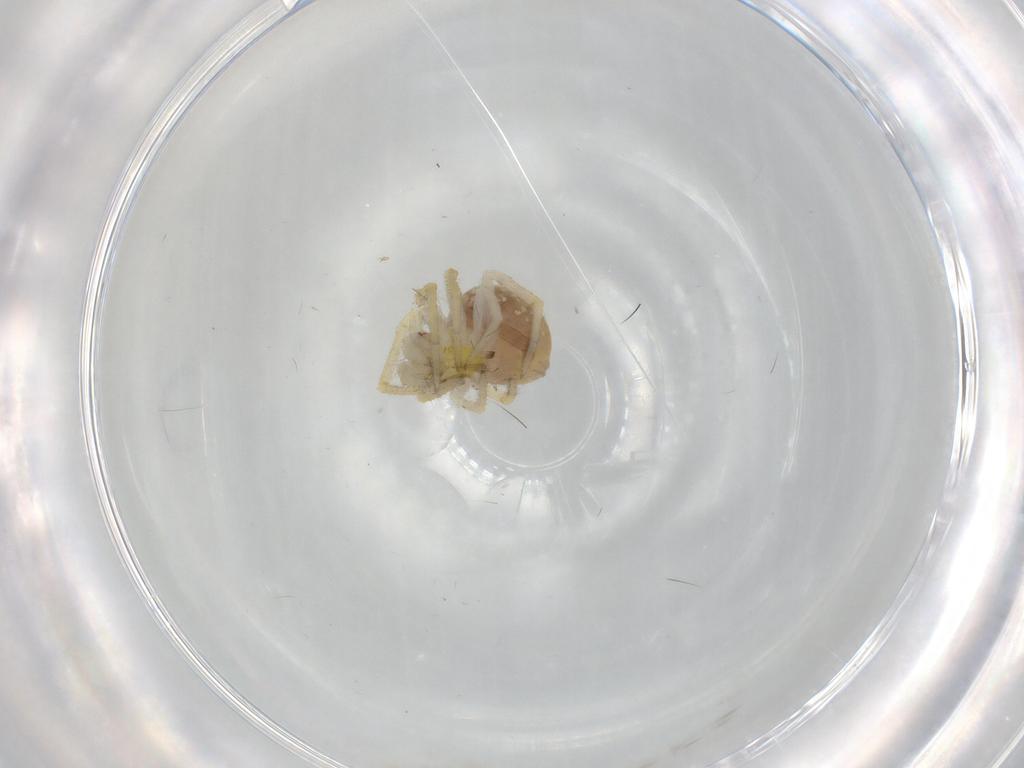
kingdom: Animalia
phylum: Arthropoda
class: Arachnida
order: Araneae
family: Theridiidae
